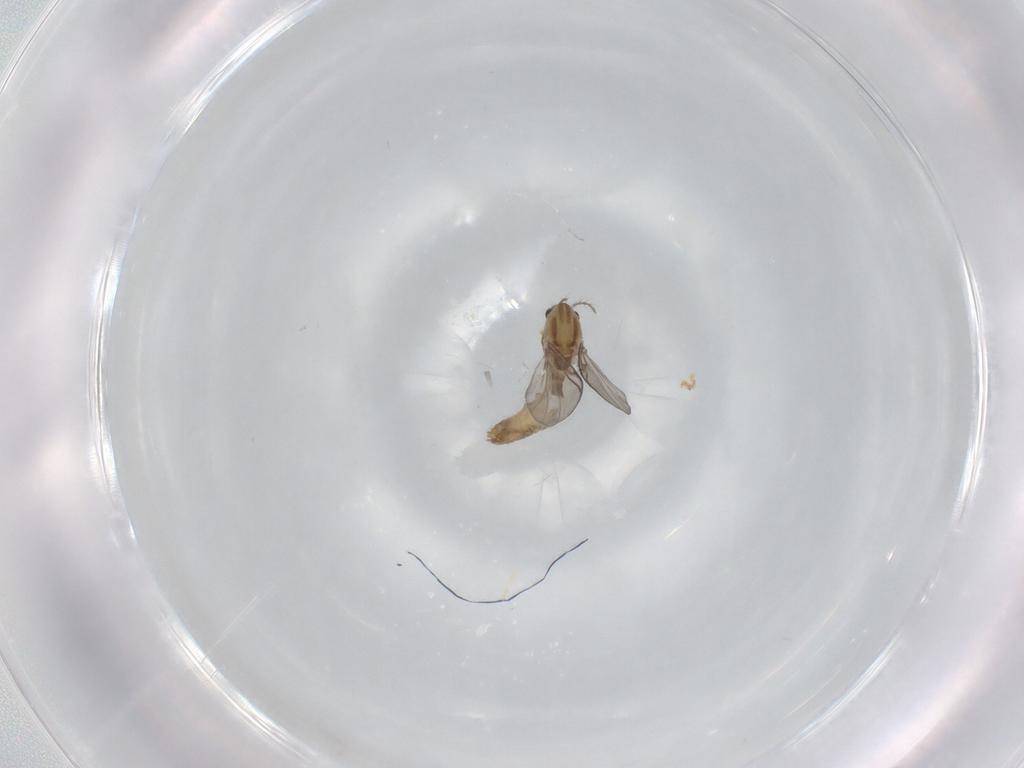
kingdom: Animalia
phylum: Arthropoda
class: Insecta
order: Diptera
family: Chironomidae
